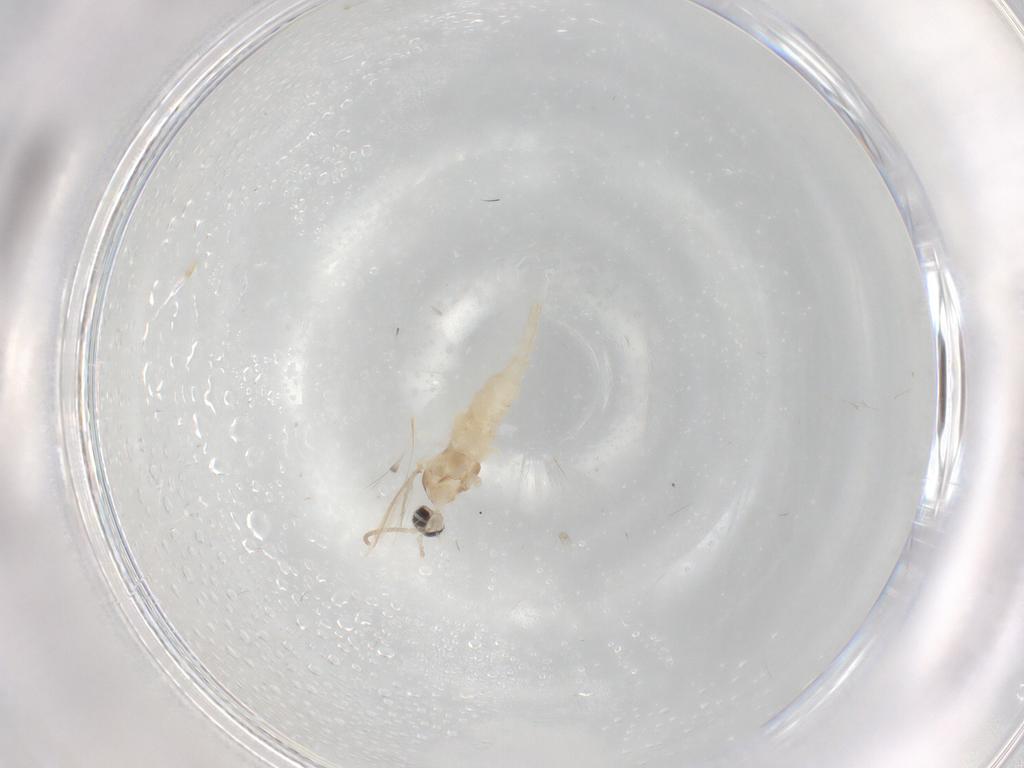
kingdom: Animalia
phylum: Arthropoda
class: Insecta
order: Diptera
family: Cecidomyiidae
